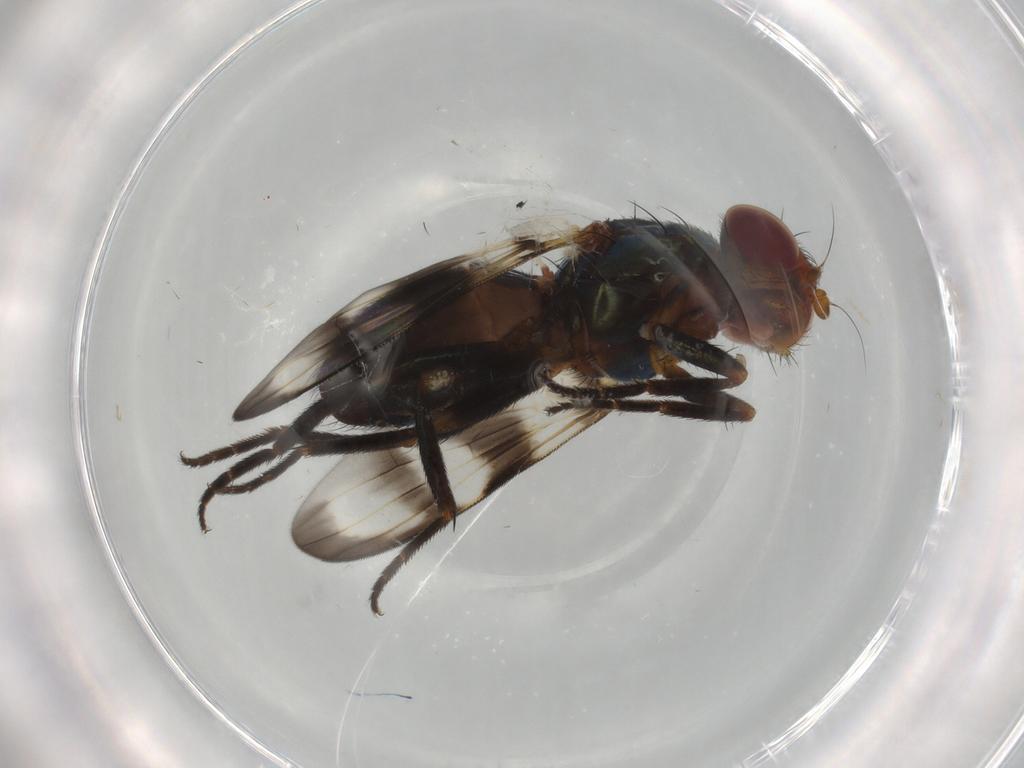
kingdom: Animalia
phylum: Arthropoda
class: Insecta
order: Diptera
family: Dolichopodidae
